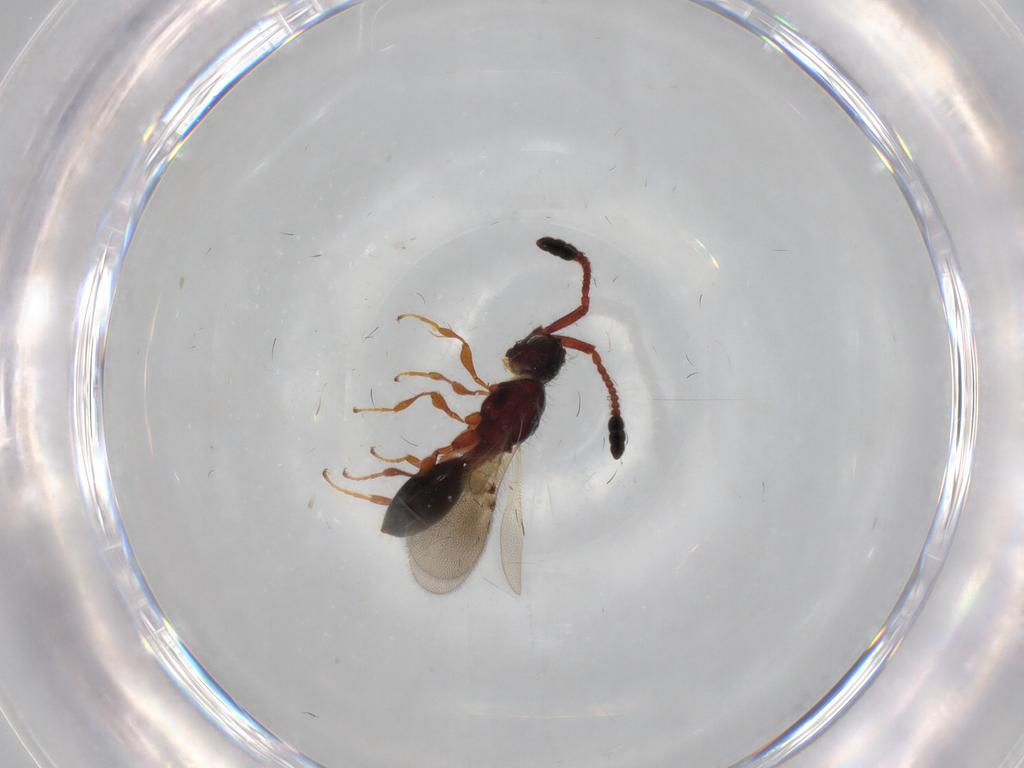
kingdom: Animalia
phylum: Arthropoda
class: Insecta
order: Hymenoptera
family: Diapriidae
